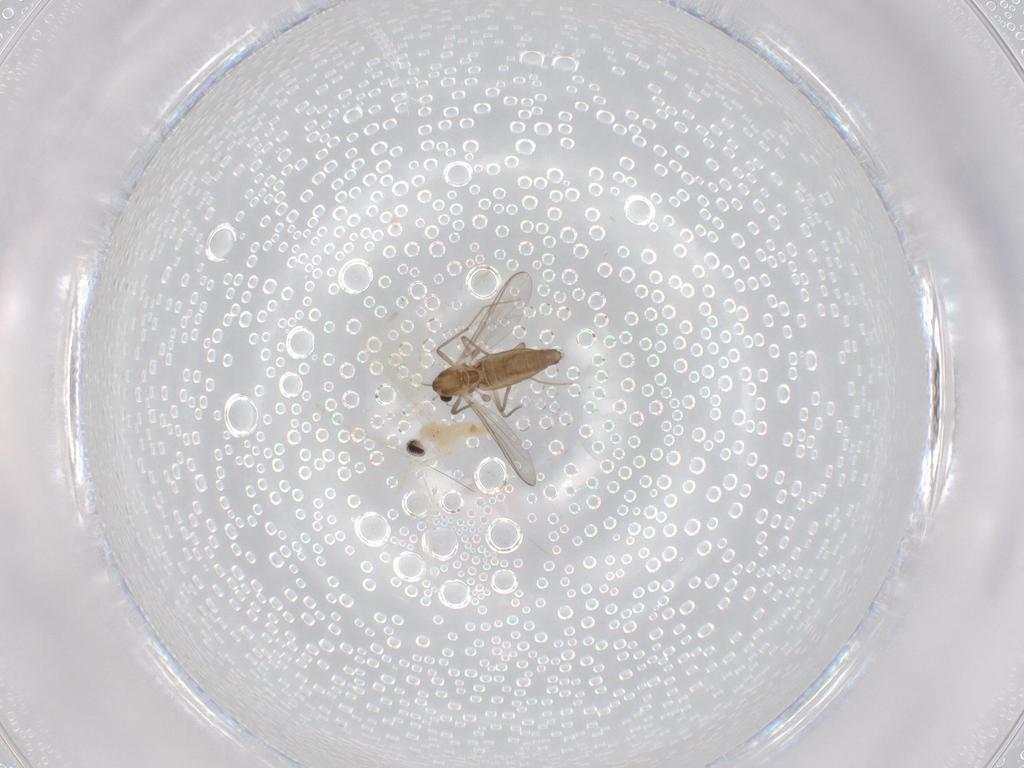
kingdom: Animalia
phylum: Arthropoda
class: Insecta
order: Diptera
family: Chironomidae
